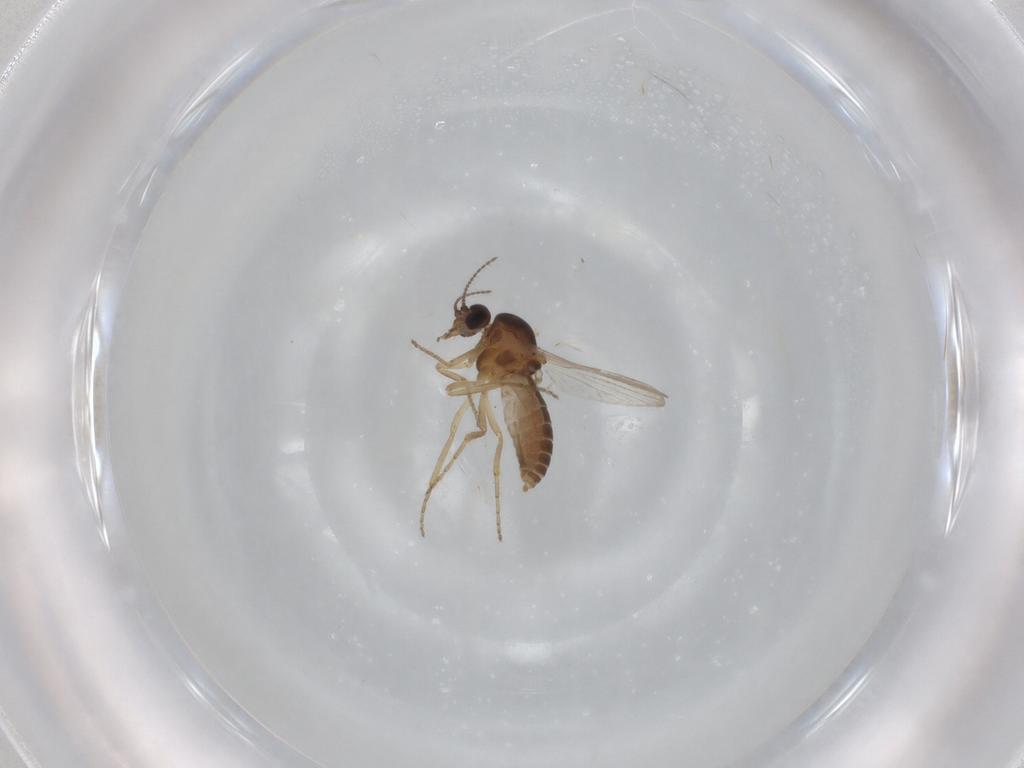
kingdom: Animalia
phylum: Arthropoda
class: Insecta
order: Diptera
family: Ceratopogonidae
